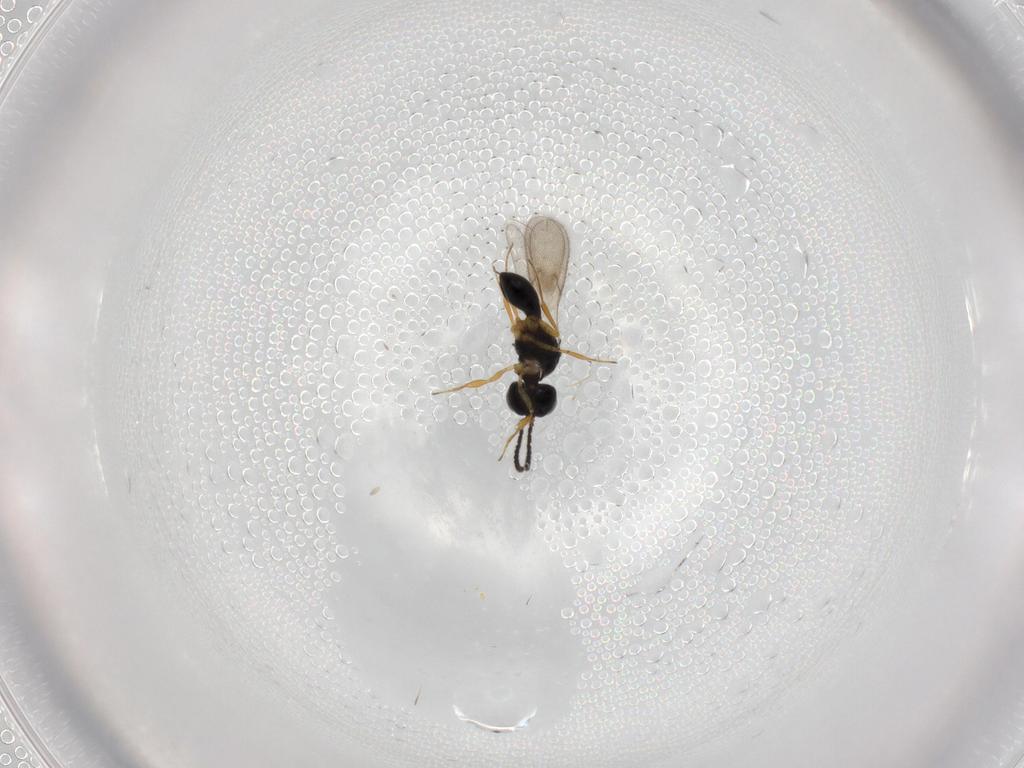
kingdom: Animalia
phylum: Arthropoda
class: Insecta
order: Hymenoptera
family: Scelionidae
